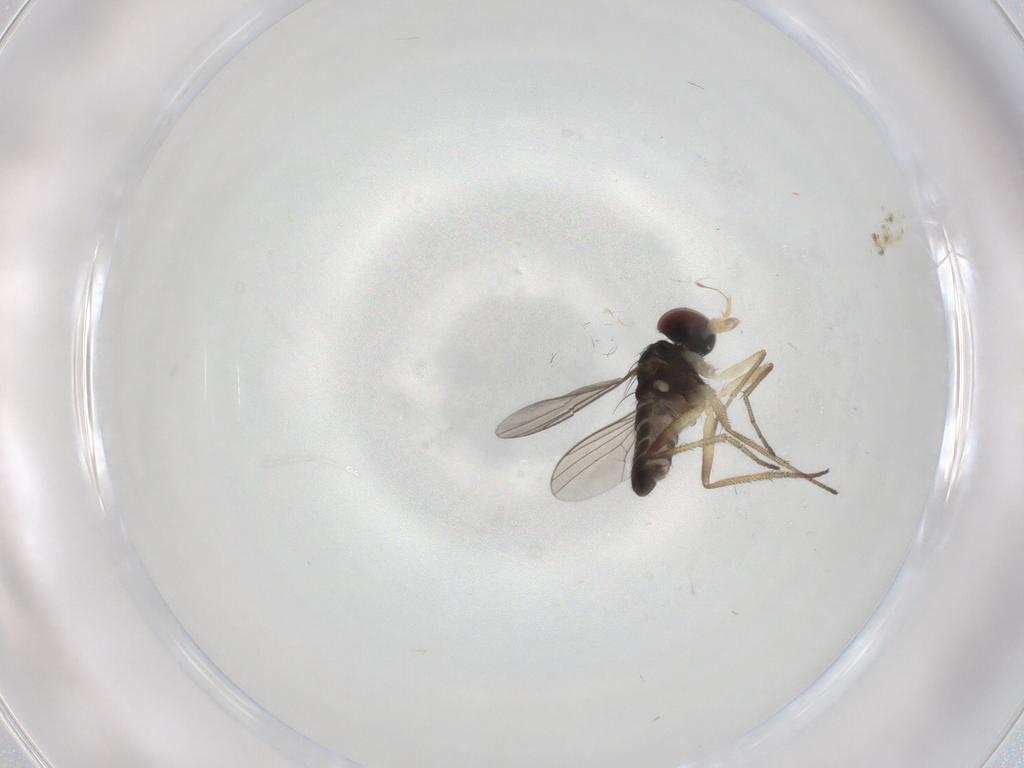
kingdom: Animalia
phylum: Arthropoda
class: Insecta
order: Diptera
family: Dolichopodidae
